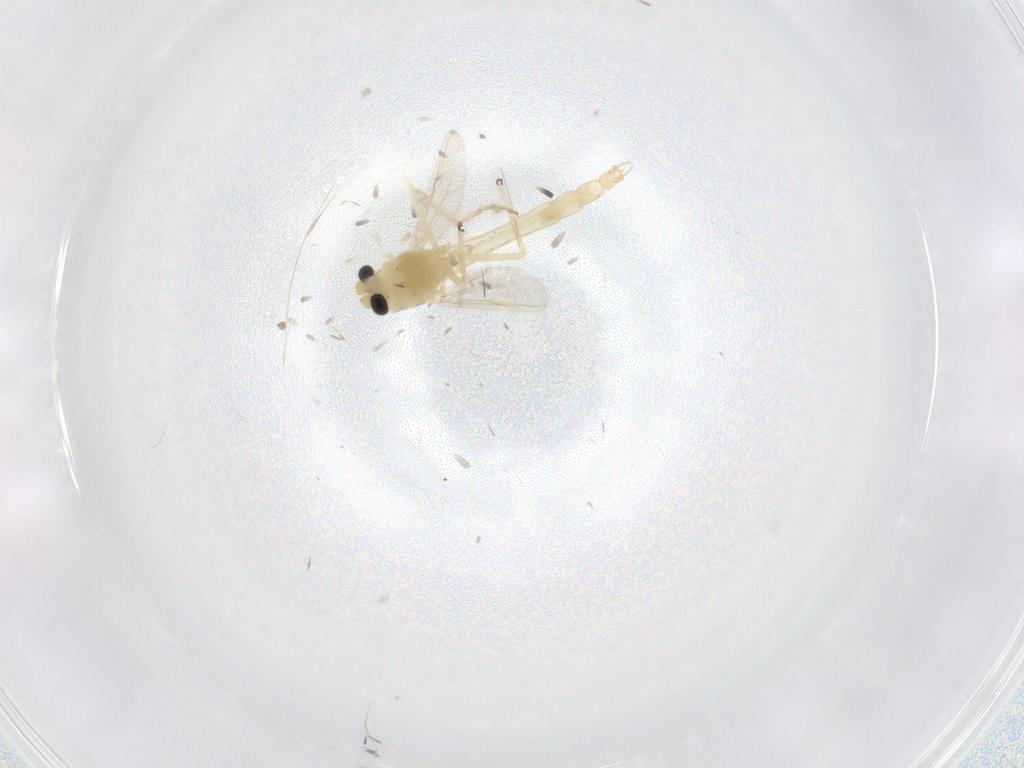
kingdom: Animalia
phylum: Arthropoda
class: Insecta
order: Diptera
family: Chironomidae
